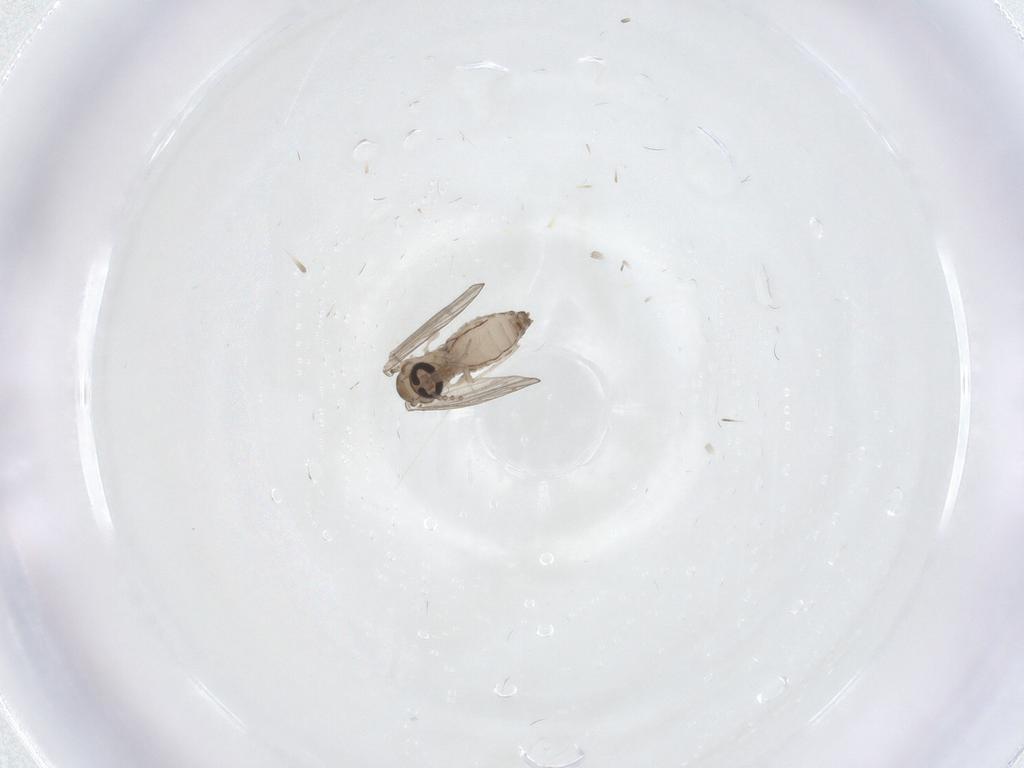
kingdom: Animalia
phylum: Arthropoda
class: Insecta
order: Diptera
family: Psychodidae
